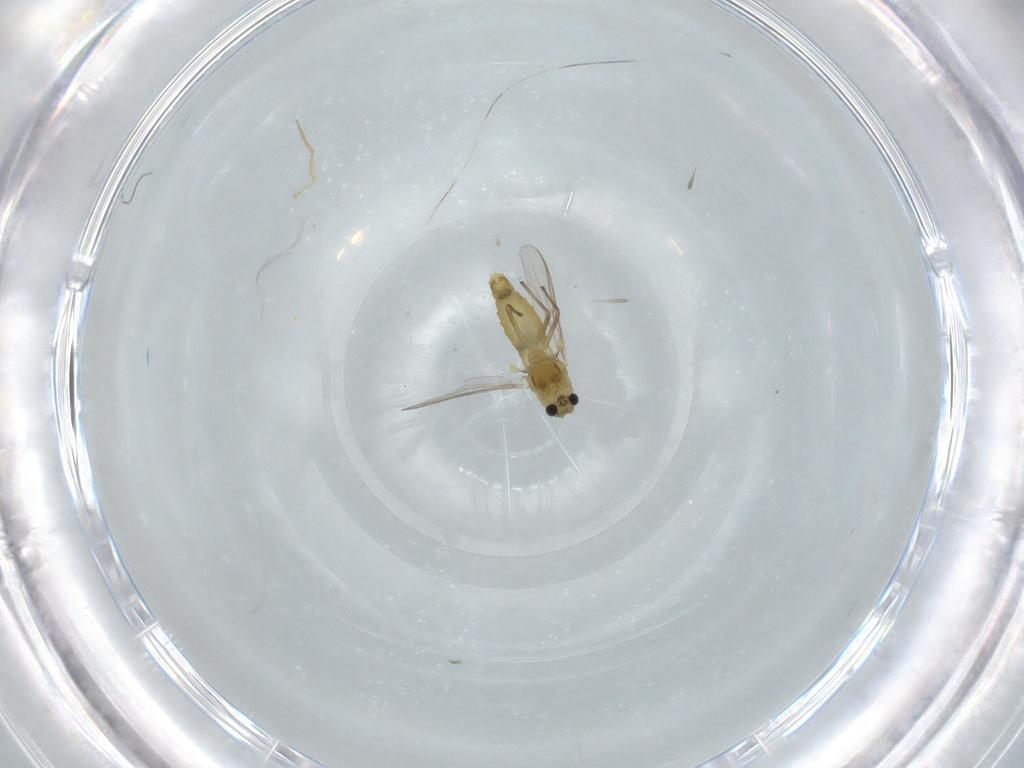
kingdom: Animalia
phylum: Arthropoda
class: Insecta
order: Diptera
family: Chironomidae
